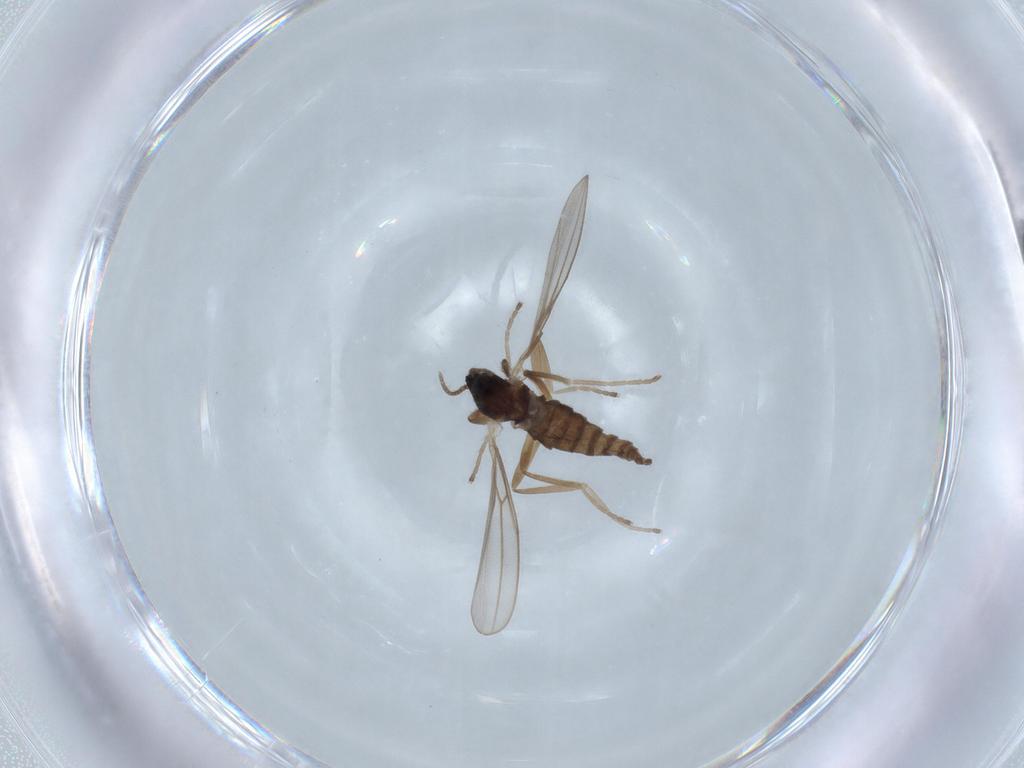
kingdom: Animalia
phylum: Arthropoda
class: Insecta
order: Diptera
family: Cecidomyiidae
